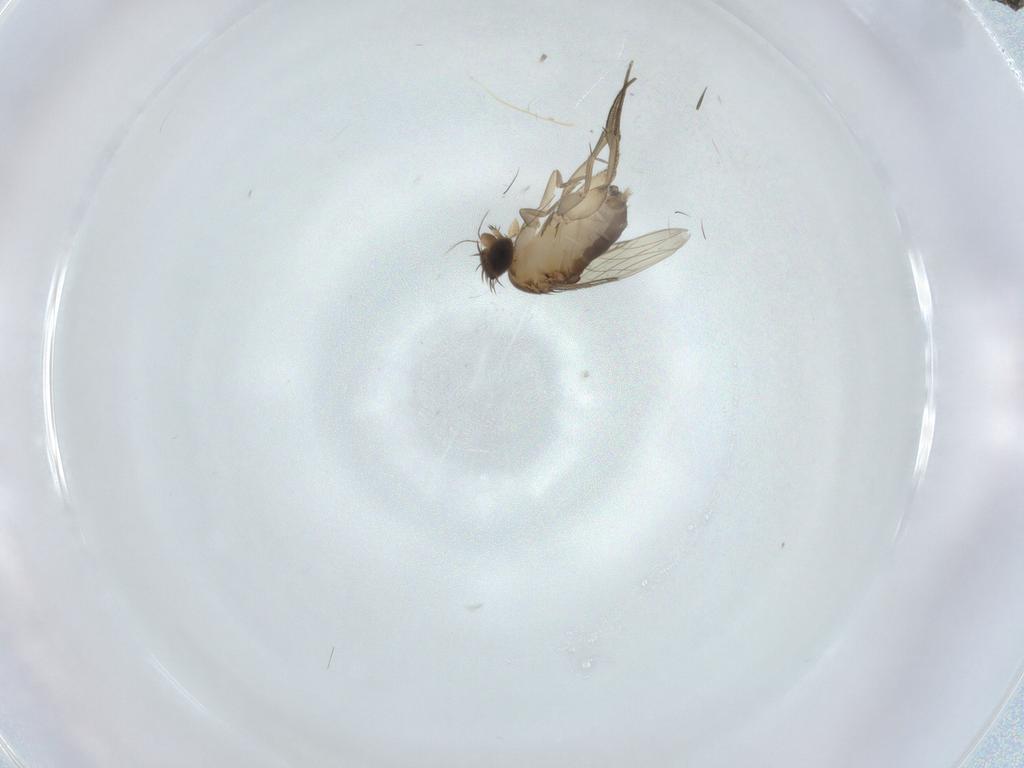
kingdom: Animalia
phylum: Arthropoda
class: Insecta
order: Diptera
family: Phoridae
